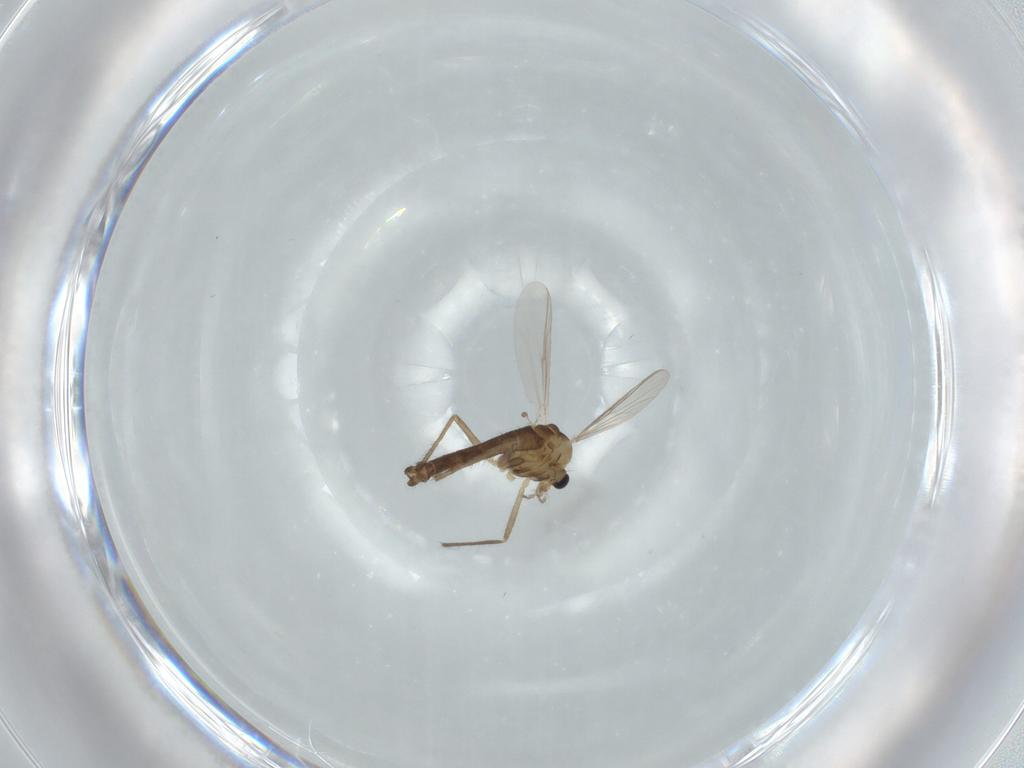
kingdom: Animalia
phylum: Arthropoda
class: Insecta
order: Diptera
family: Ceratopogonidae
